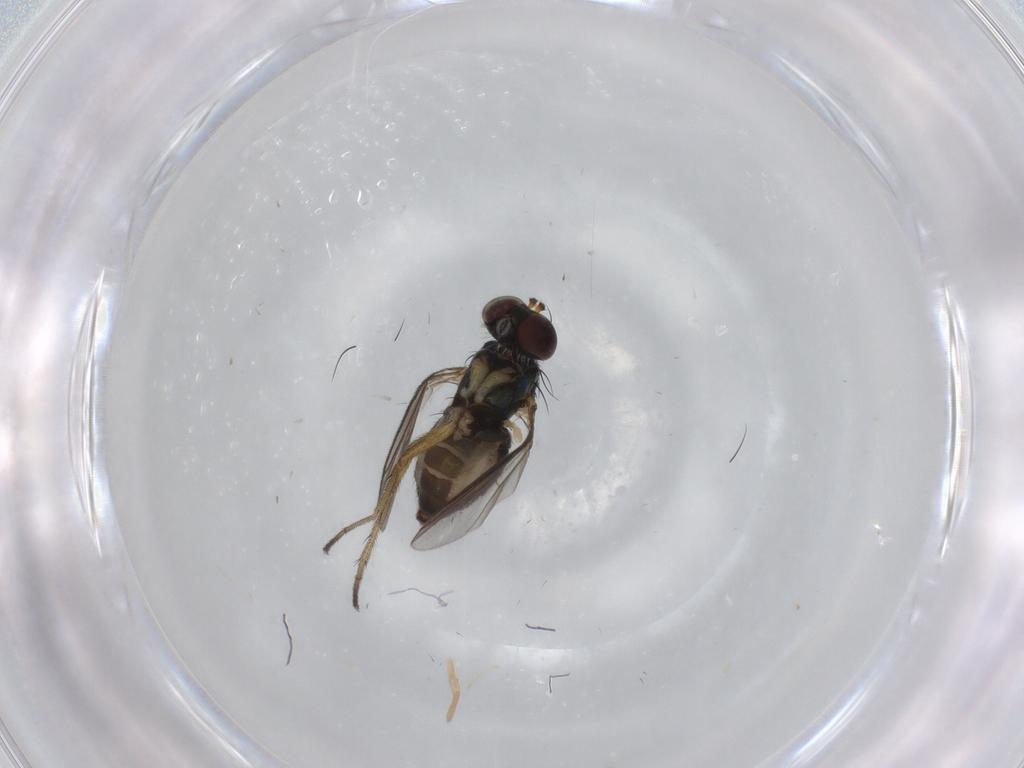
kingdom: Animalia
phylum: Arthropoda
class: Insecta
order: Diptera
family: Dolichopodidae
